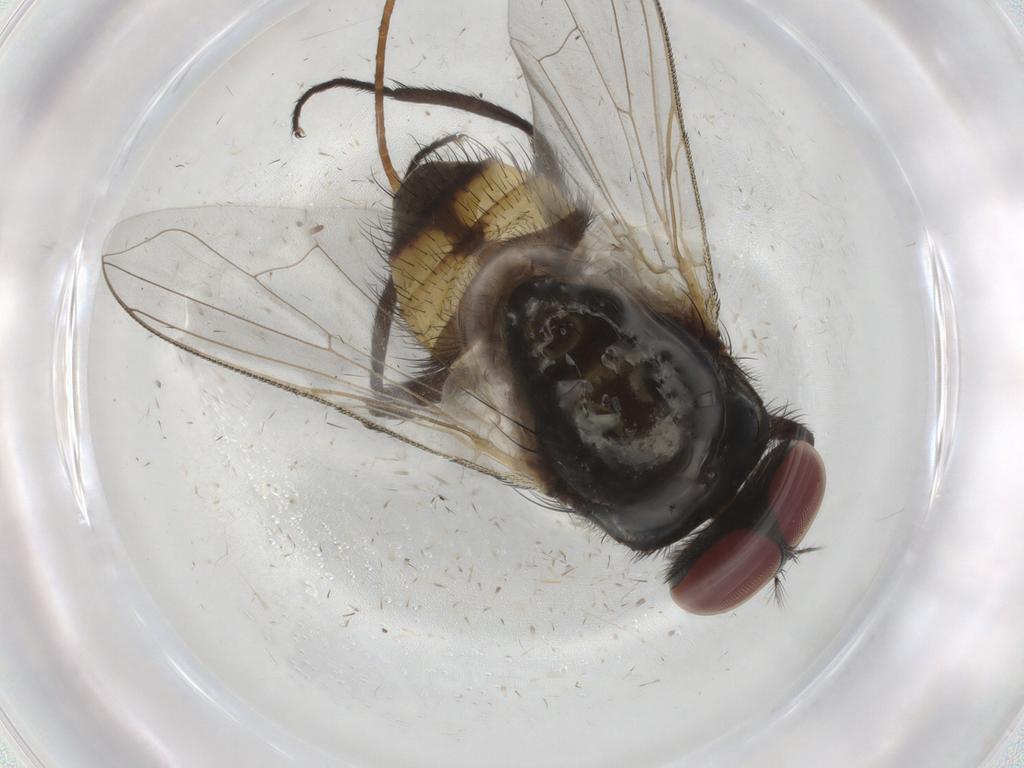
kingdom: Animalia
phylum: Arthropoda
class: Insecta
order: Diptera
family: Muscidae
